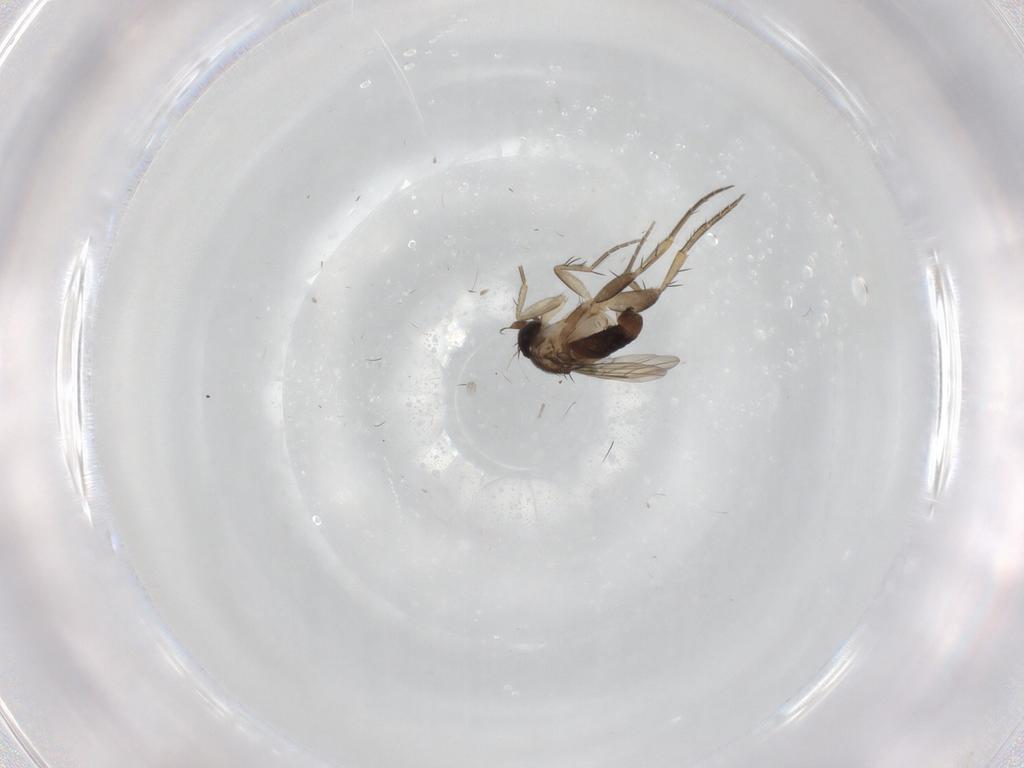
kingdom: Animalia
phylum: Arthropoda
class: Insecta
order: Diptera
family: Phoridae
